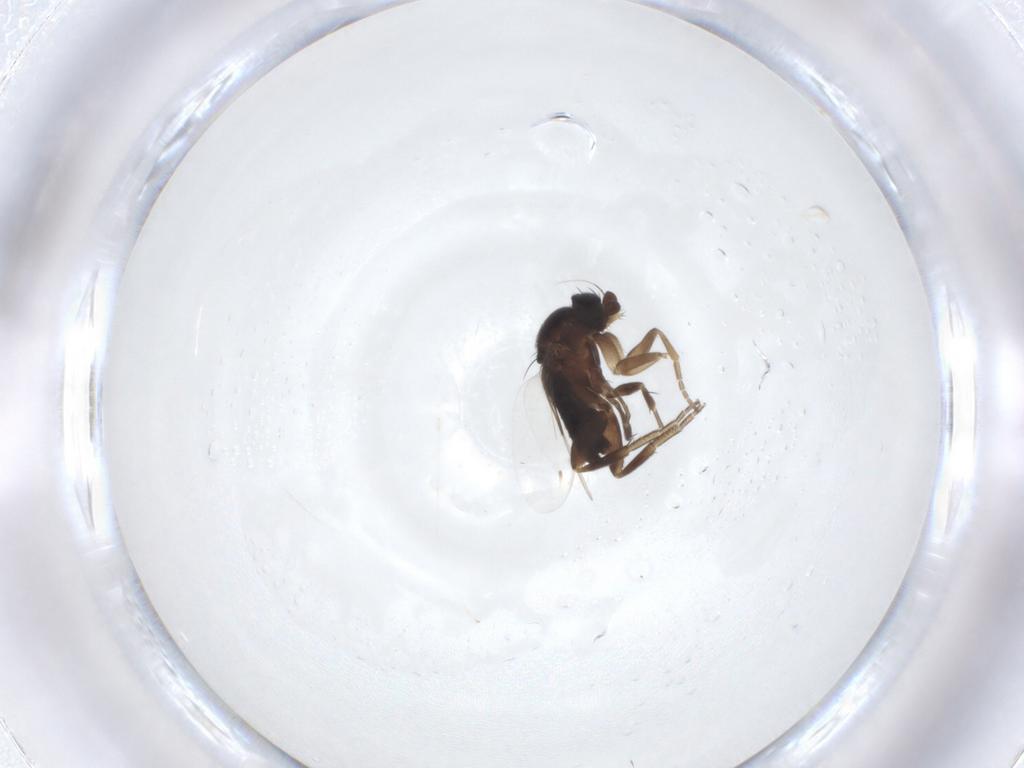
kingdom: Animalia
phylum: Arthropoda
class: Insecta
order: Diptera
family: Phoridae
